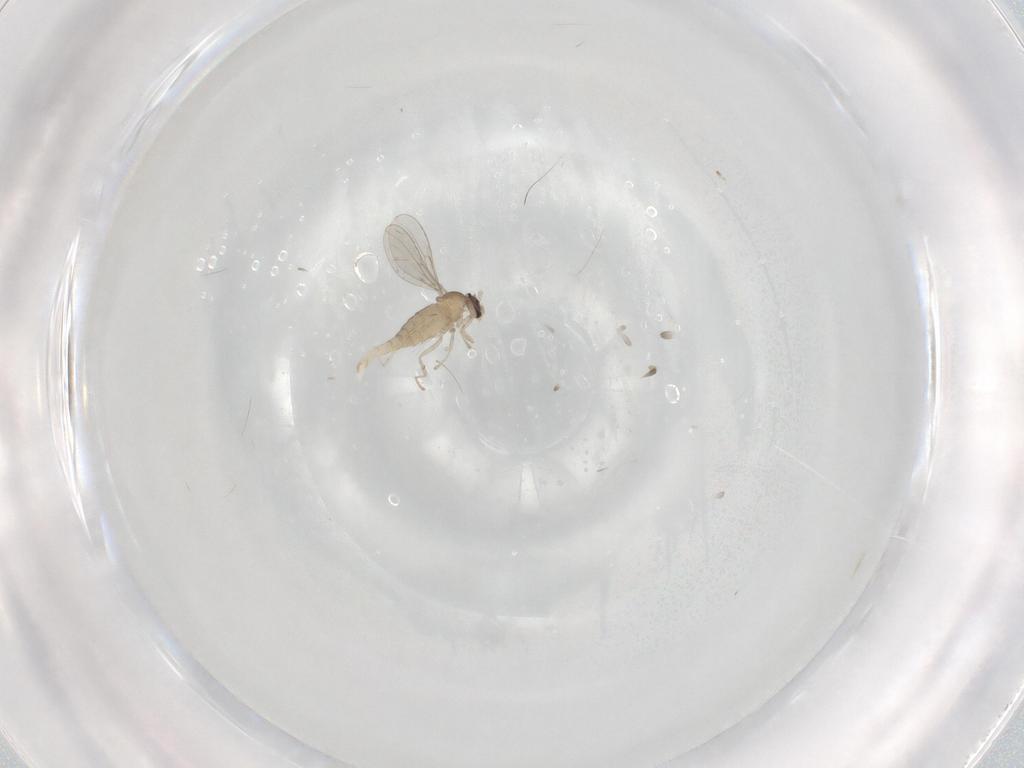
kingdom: Animalia
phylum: Arthropoda
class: Insecta
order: Diptera
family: Cecidomyiidae
